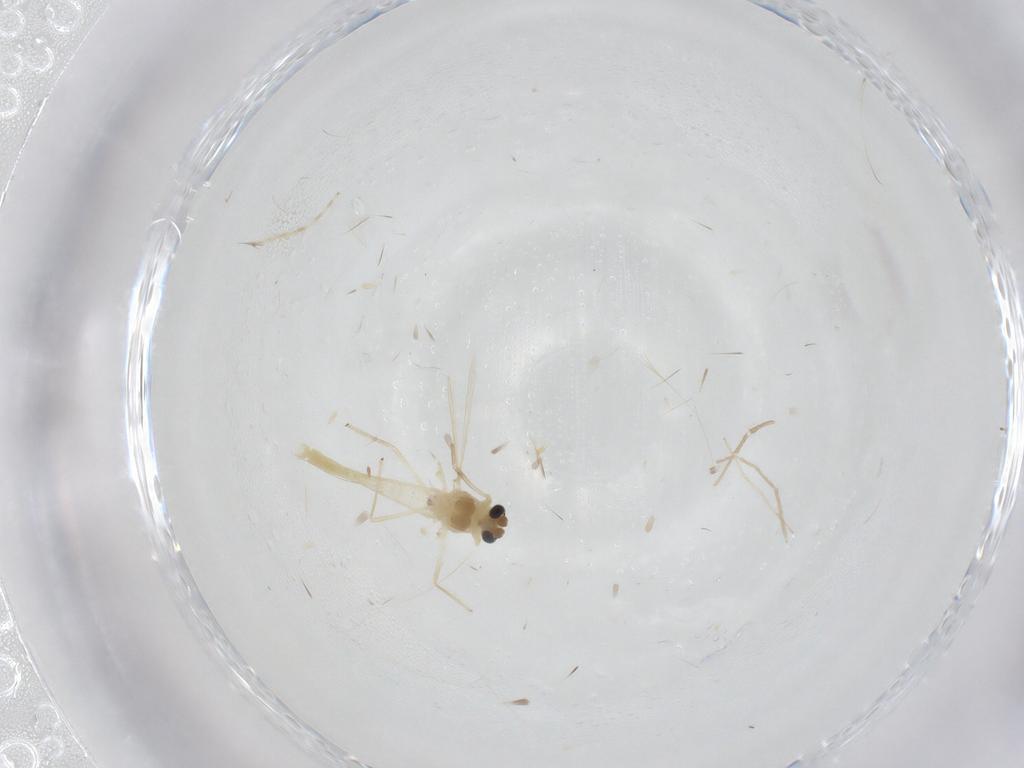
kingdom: Animalia
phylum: Arthropoda
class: Insecta
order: Diptera
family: Chironomidae
